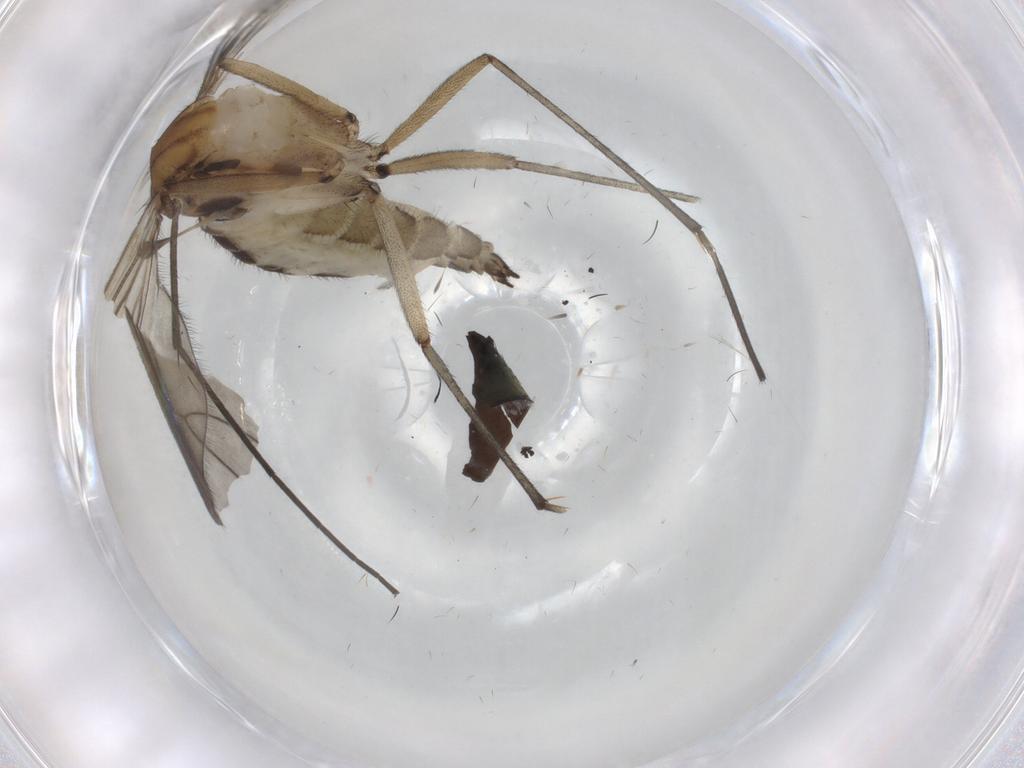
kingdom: Animalia
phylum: Arthropoda
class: Insecta
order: Diptera
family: Sciaridae
